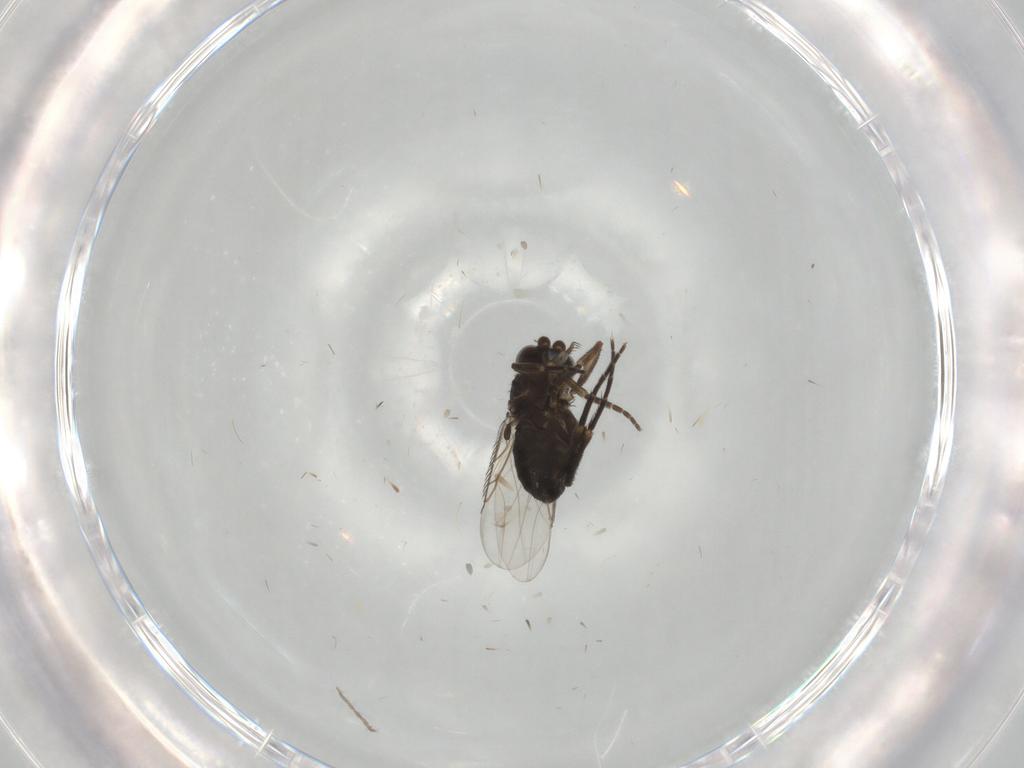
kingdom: Animalia
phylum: Arthropoda
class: Insecta
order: Diptera
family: Phoridae
